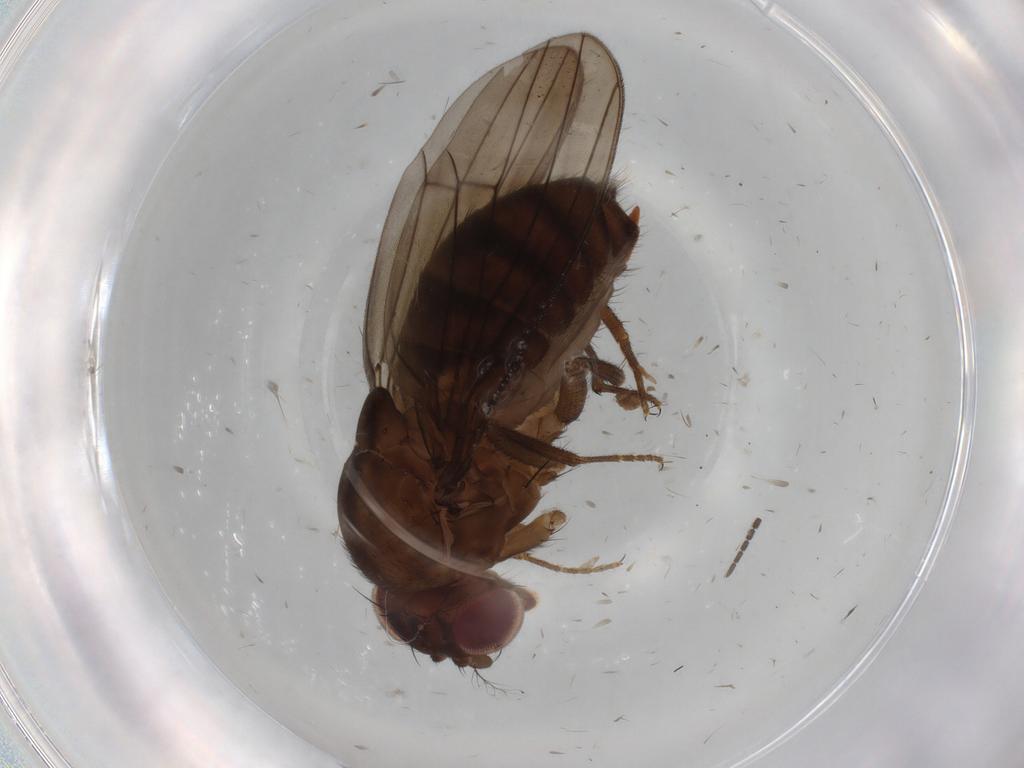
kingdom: Animalia
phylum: Arthropoda
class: Insecta
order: Diptera
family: Drosophilidae
